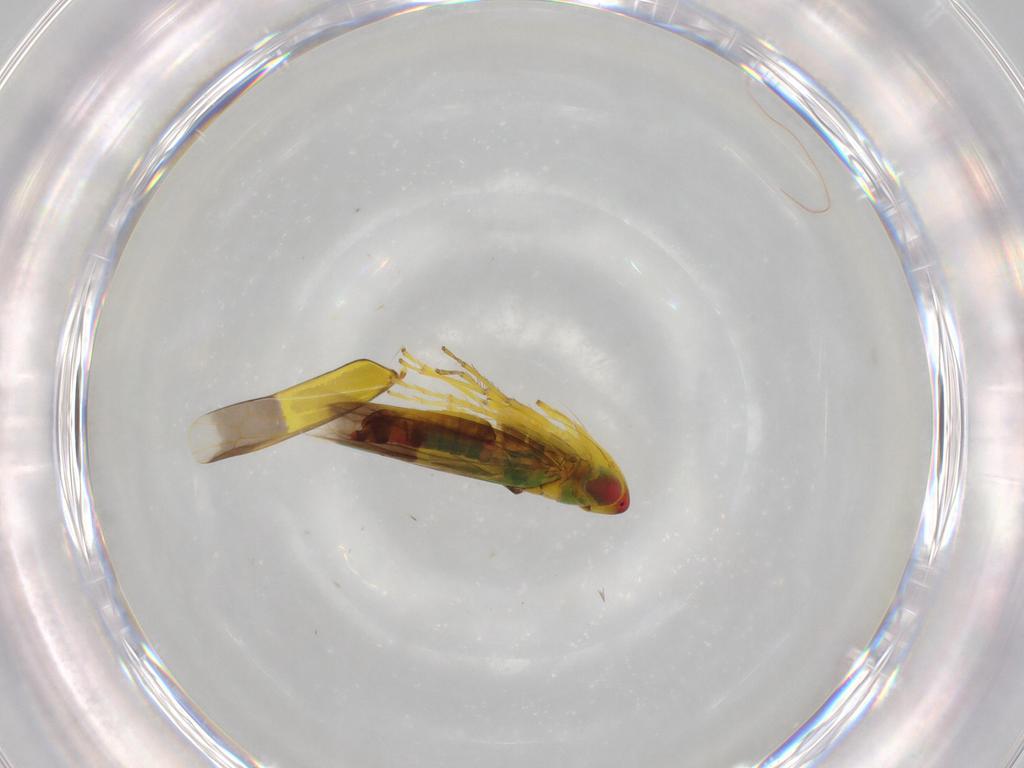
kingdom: Animalia
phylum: Arthropoda
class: Insecta
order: Hemiptera
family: Cicadellidae
